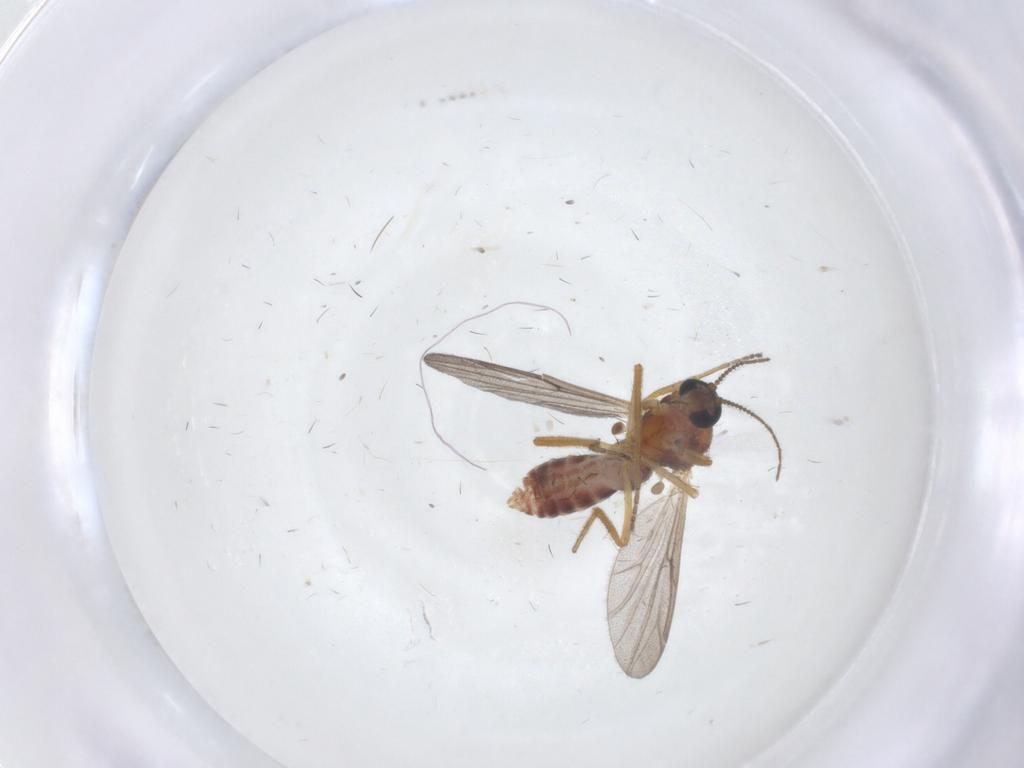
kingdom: Animalia
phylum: Arthropoda
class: Insecta
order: Diptera
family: Ceratopogonidae
